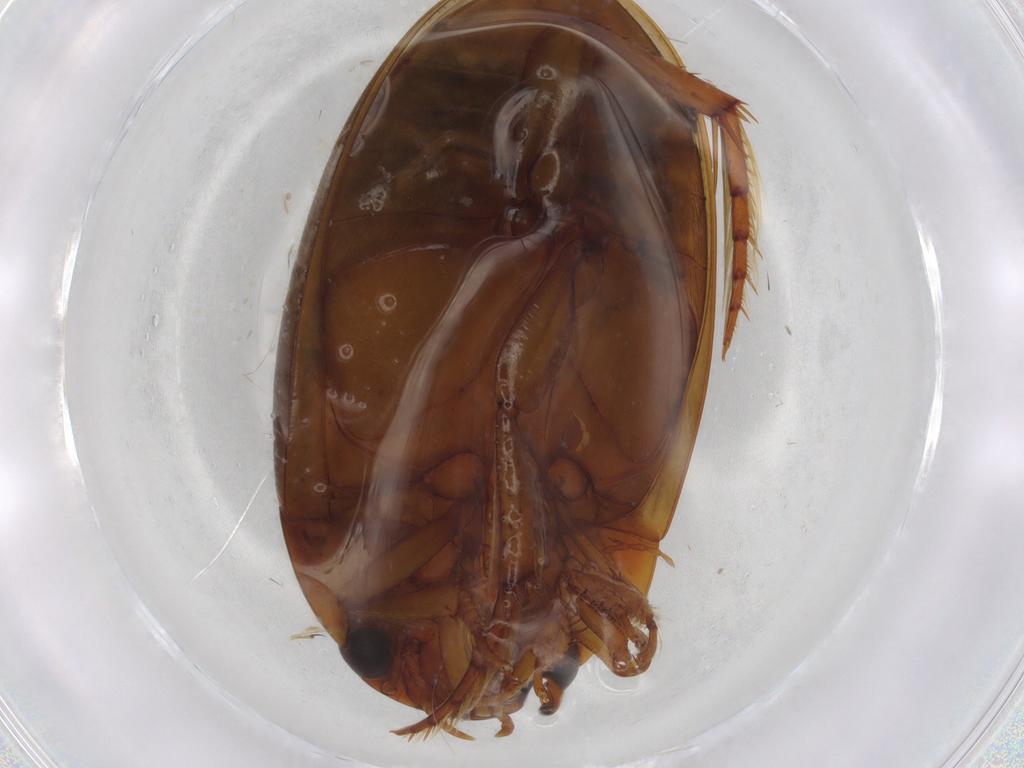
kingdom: Animalia
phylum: Arthropoda
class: Insecta
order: Coleoptera
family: Dytiscidae
